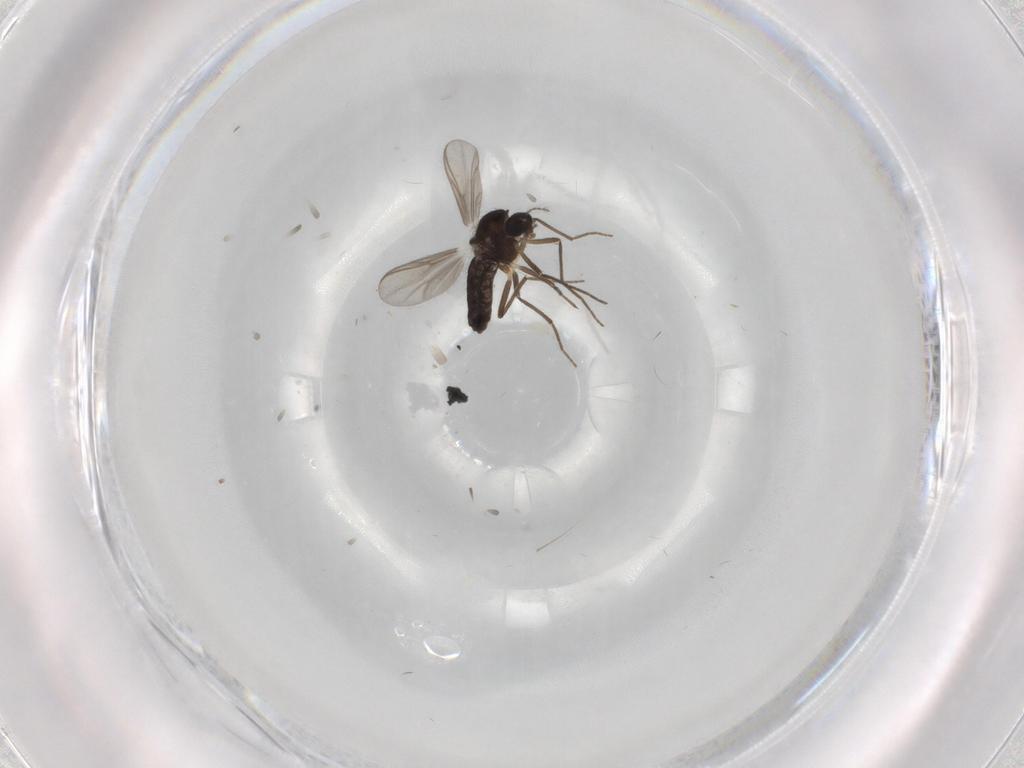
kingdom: Animalia
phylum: Arthropoda
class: Insecta
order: Diptera
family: Chironomidae
